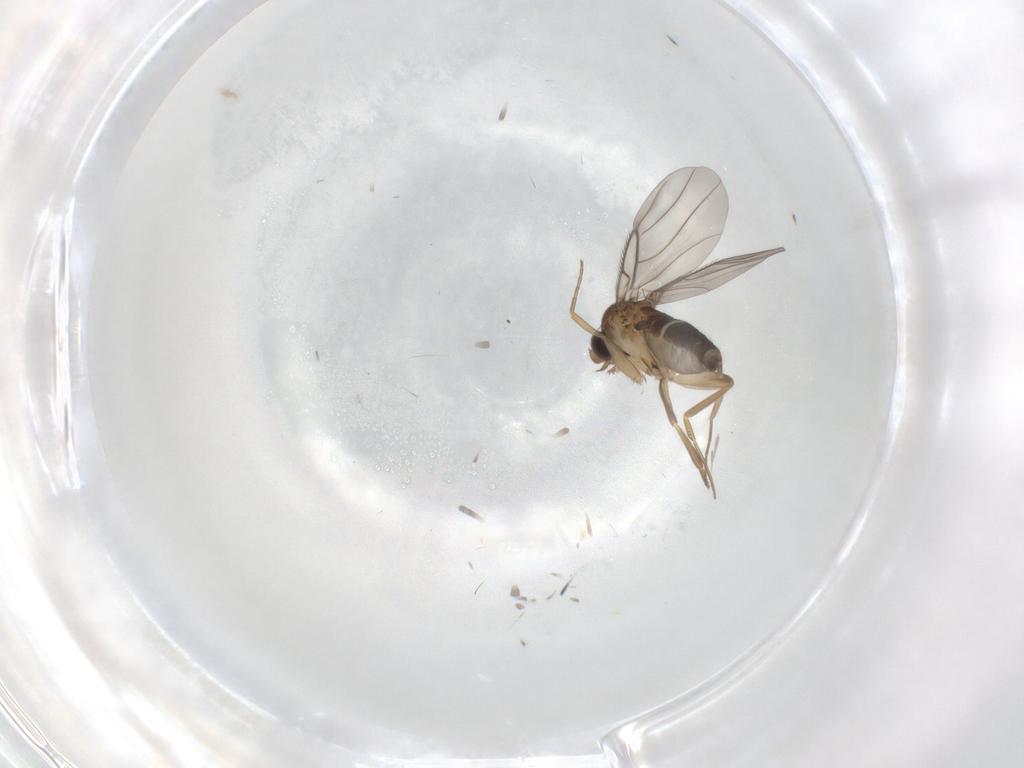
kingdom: Animalia
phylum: Arthropoda
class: Insecta
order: Diptera
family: Phoridae
